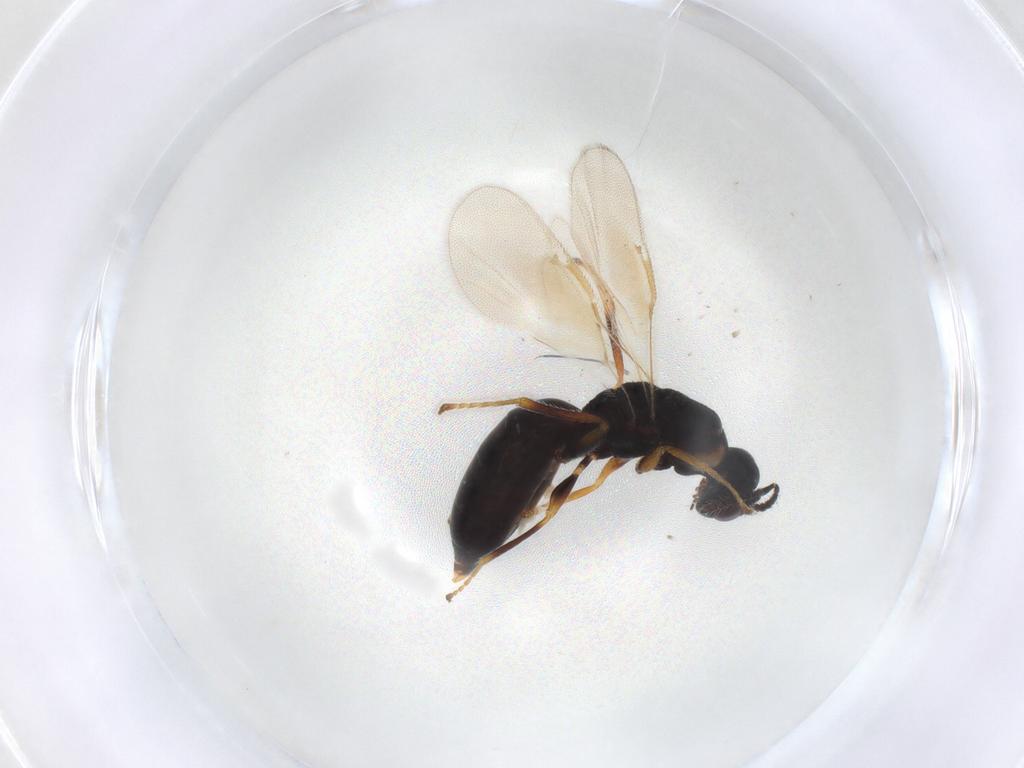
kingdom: Animalia
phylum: Arthropoda
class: Insecta
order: Hymenoptera
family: Eurytomidae
